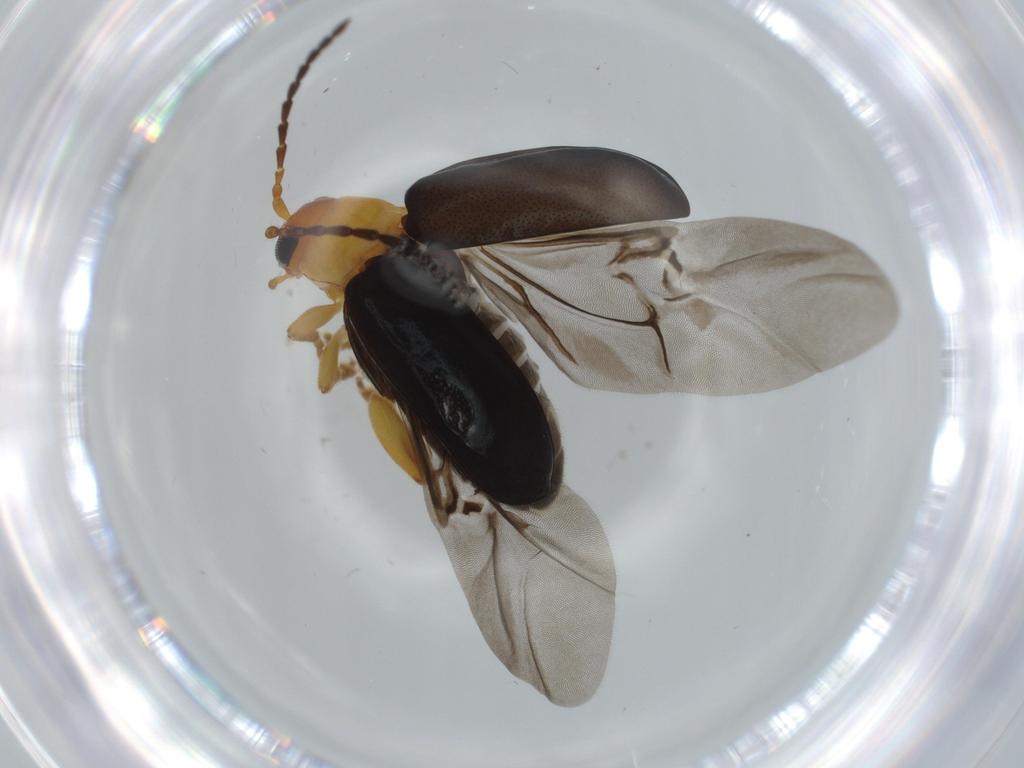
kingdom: Animalia
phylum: Arthropoda
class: Insecta
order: Coleoptera
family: Chrysomelidae
